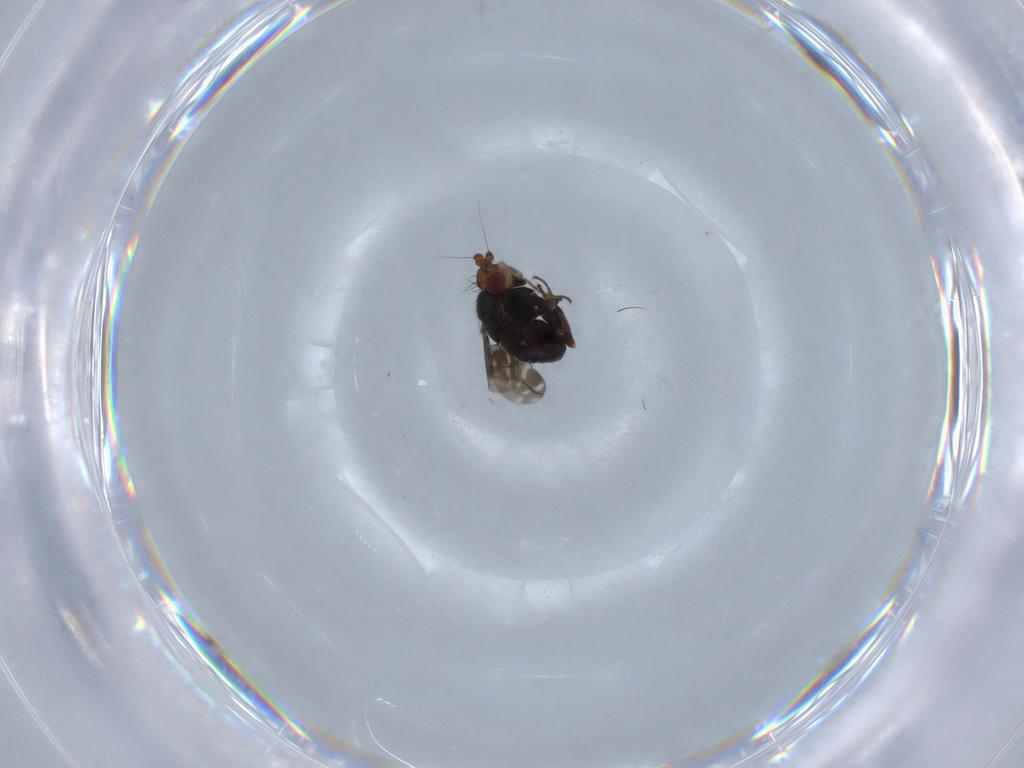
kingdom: Animalia
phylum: Arthropoda
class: Insecta
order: Diptera
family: Sphaeroceridae
